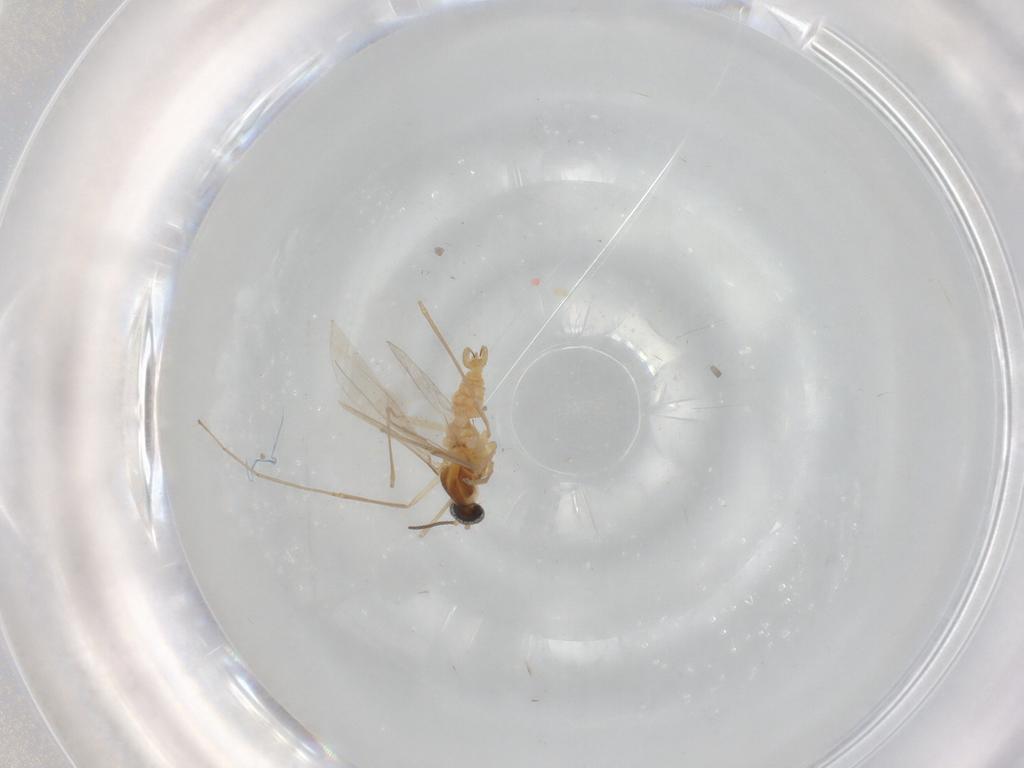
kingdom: Animalia
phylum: Arthropoda
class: Insecta
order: Diptera
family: Cecidomyiidae
